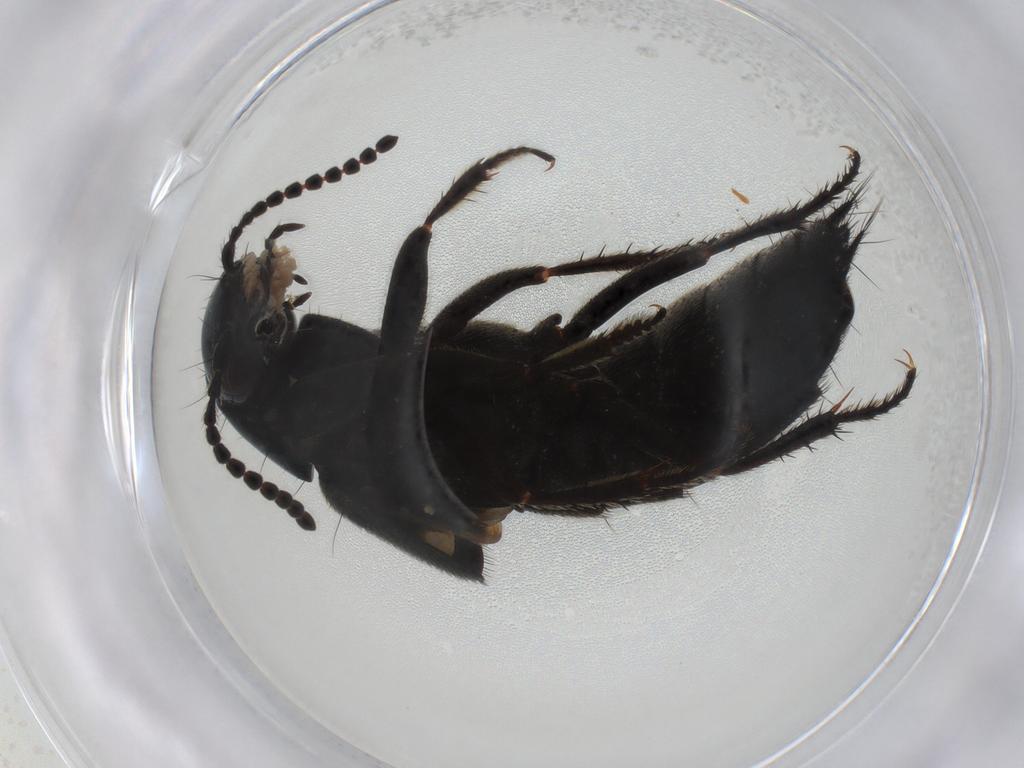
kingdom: Animalia
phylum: Arthropoda
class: Insecta
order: Coleoptera
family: Staphylinidae
